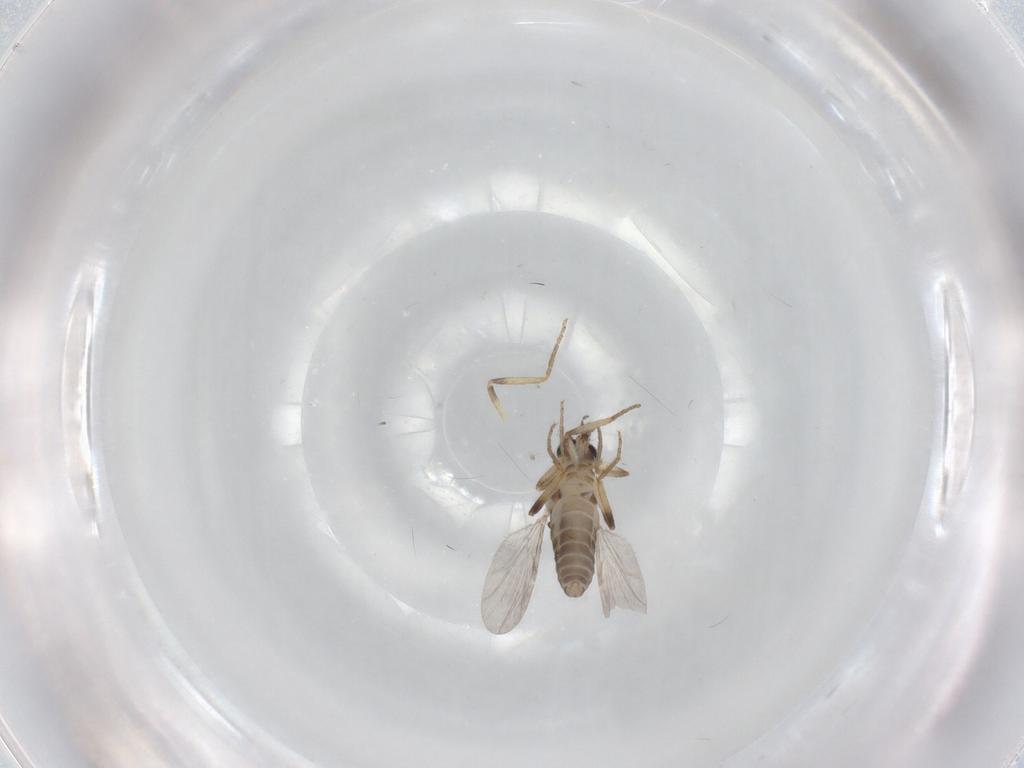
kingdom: Animalia
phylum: Arthropoda
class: Insecta
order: Diptera
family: Ceratopogonidae
